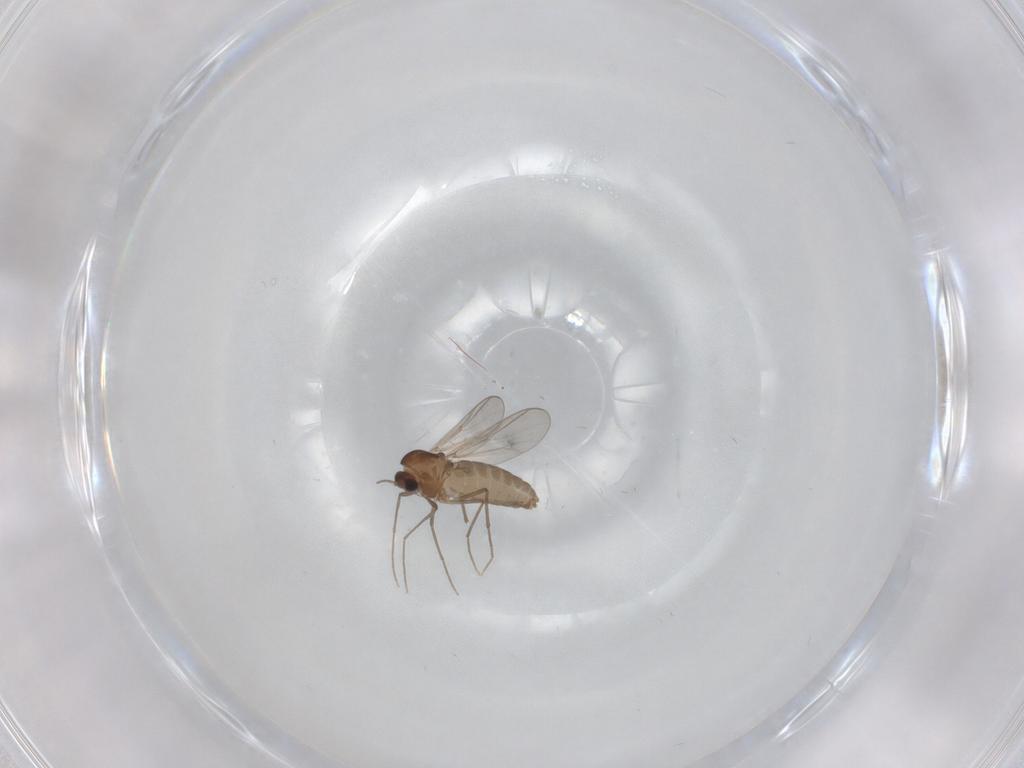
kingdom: Animalia
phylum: Arthropoda
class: Insecta
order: Diptera
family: Chironomidae
